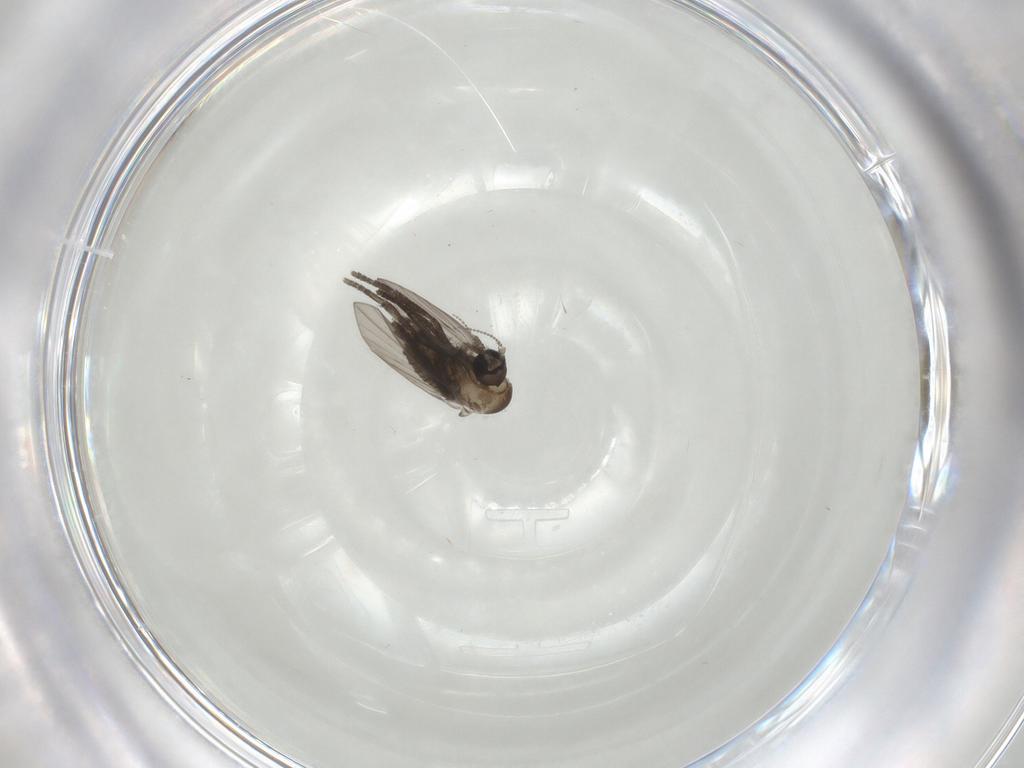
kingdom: Animalia
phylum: Arthropoda
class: Insecta
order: Diptera
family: Psychodidae
